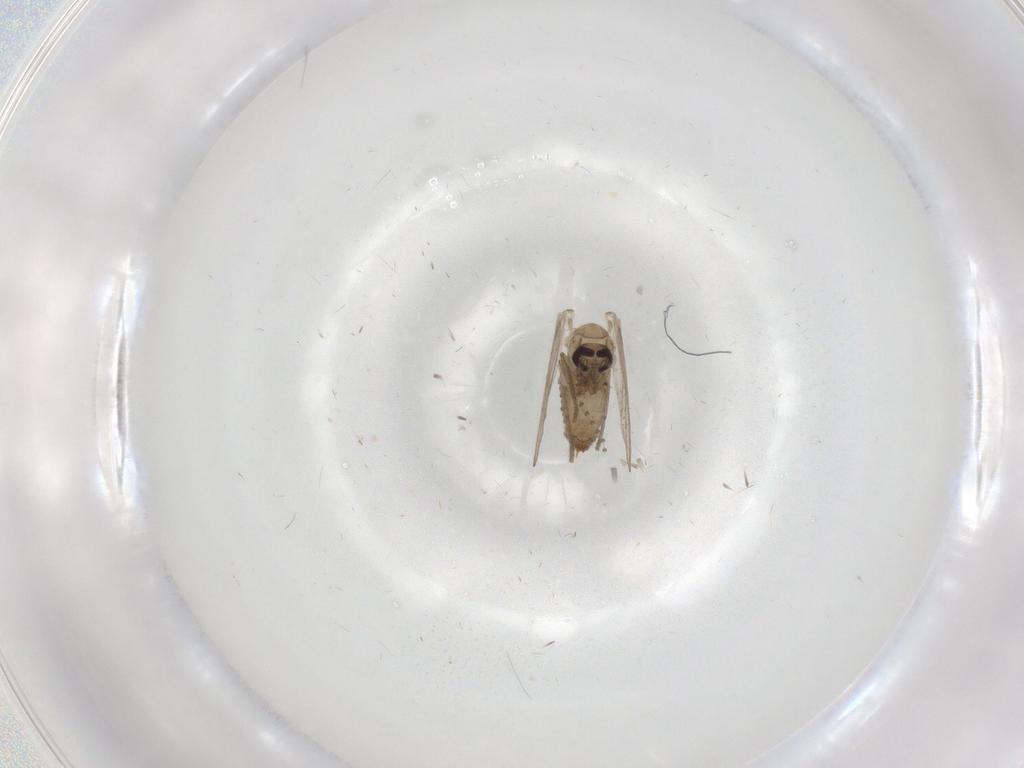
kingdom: Animalia
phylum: Arthropoda
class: Insecta
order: Diptera
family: Psychodidae
